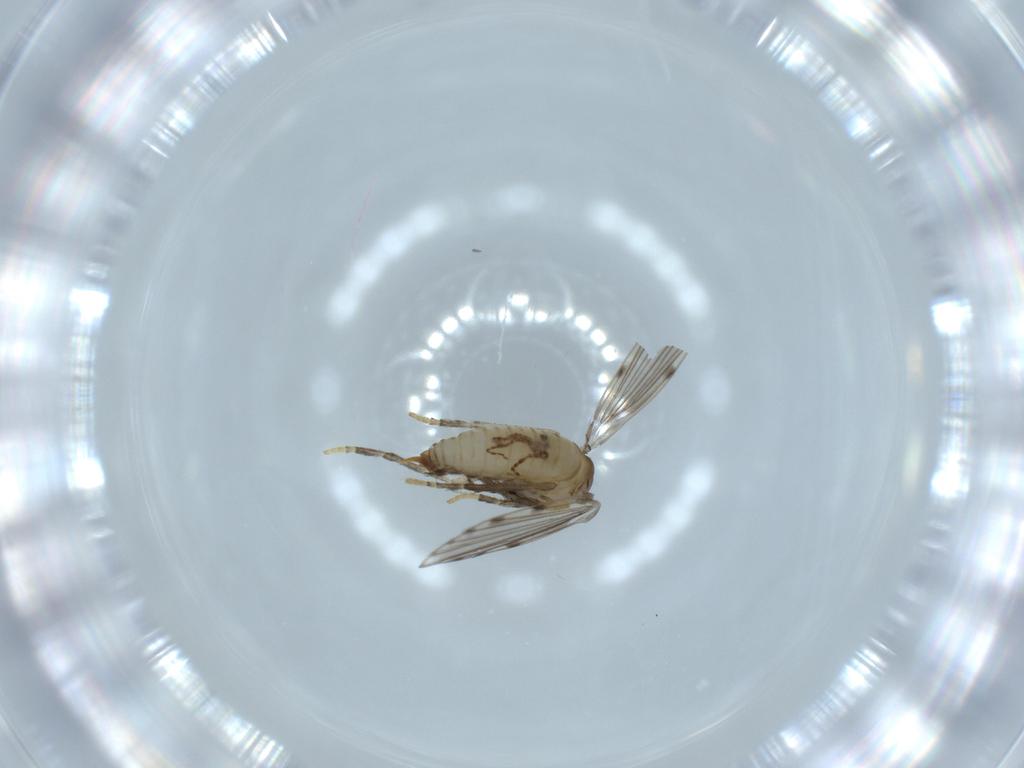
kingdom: Animalia
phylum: Arthropoda
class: Insecta
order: Diptera
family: Psychodidae
